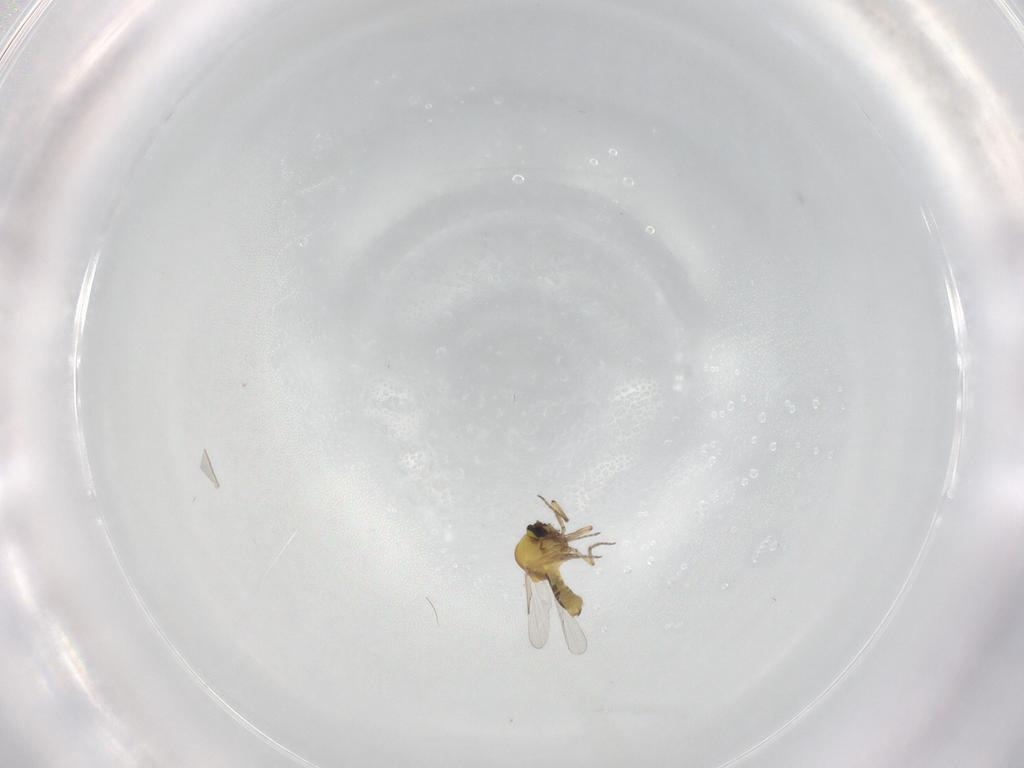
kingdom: Animalia
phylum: Arthropoda
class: Insecta
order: Diptera
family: Ceratopogonidae
